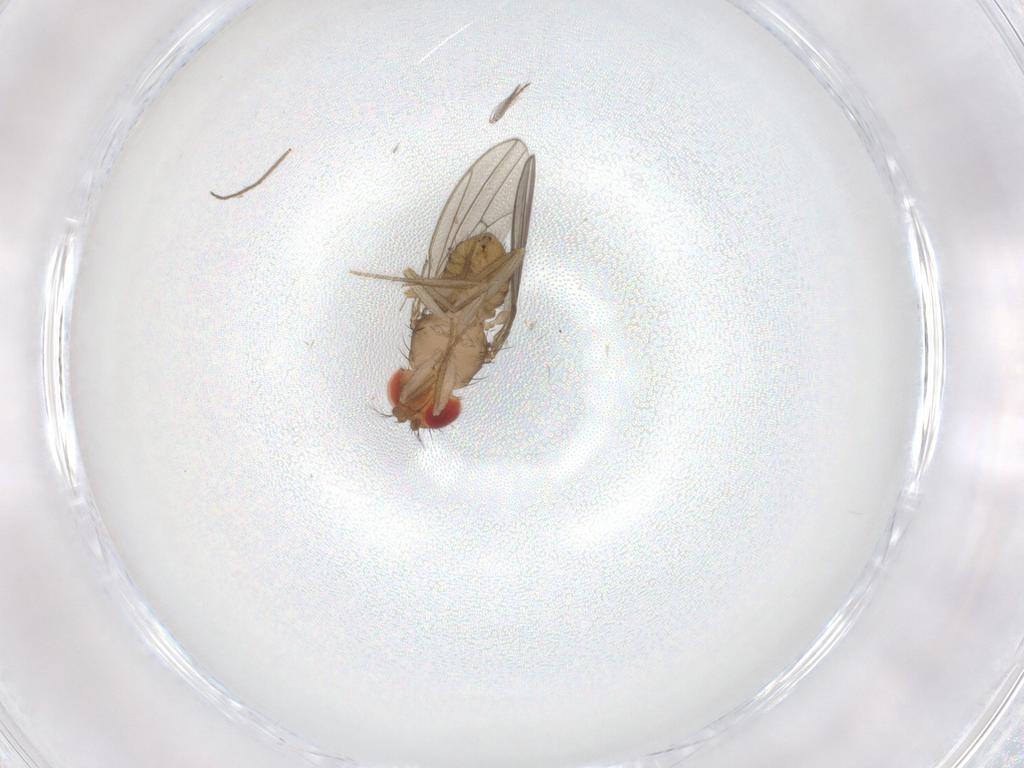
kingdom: Animalia
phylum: Arthropoda
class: Insecta
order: Diptera
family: Drosophilidae
